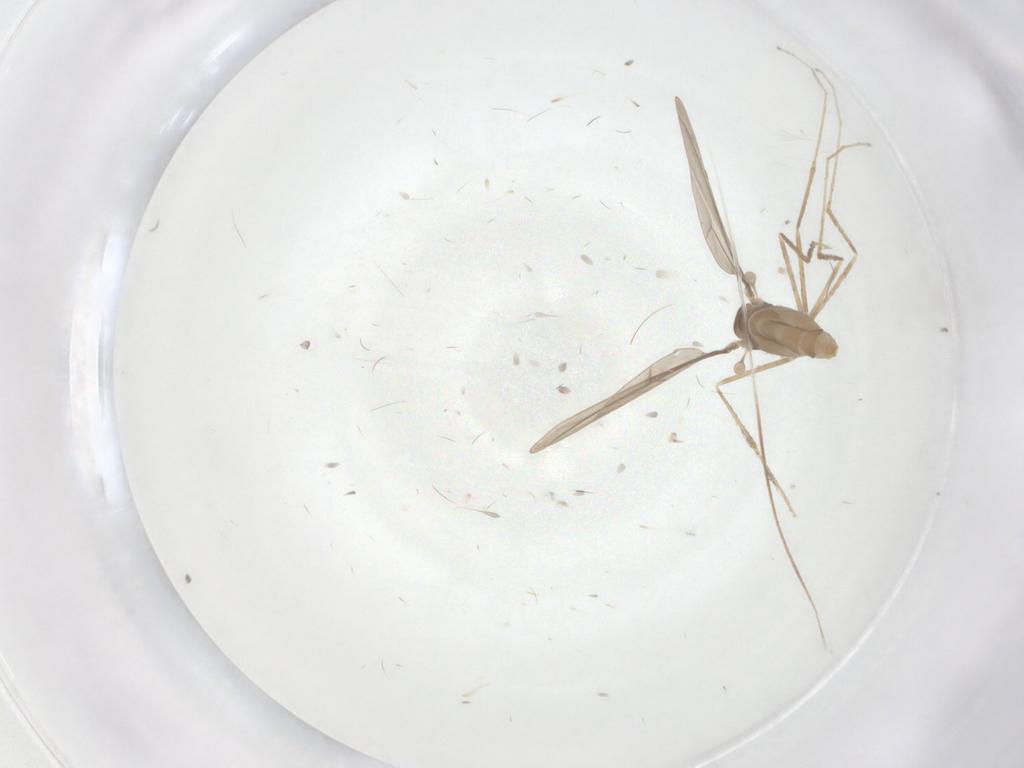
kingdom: Animalia
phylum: Arthropoda
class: Insecta
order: Diptera
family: Cecidomyiidae
